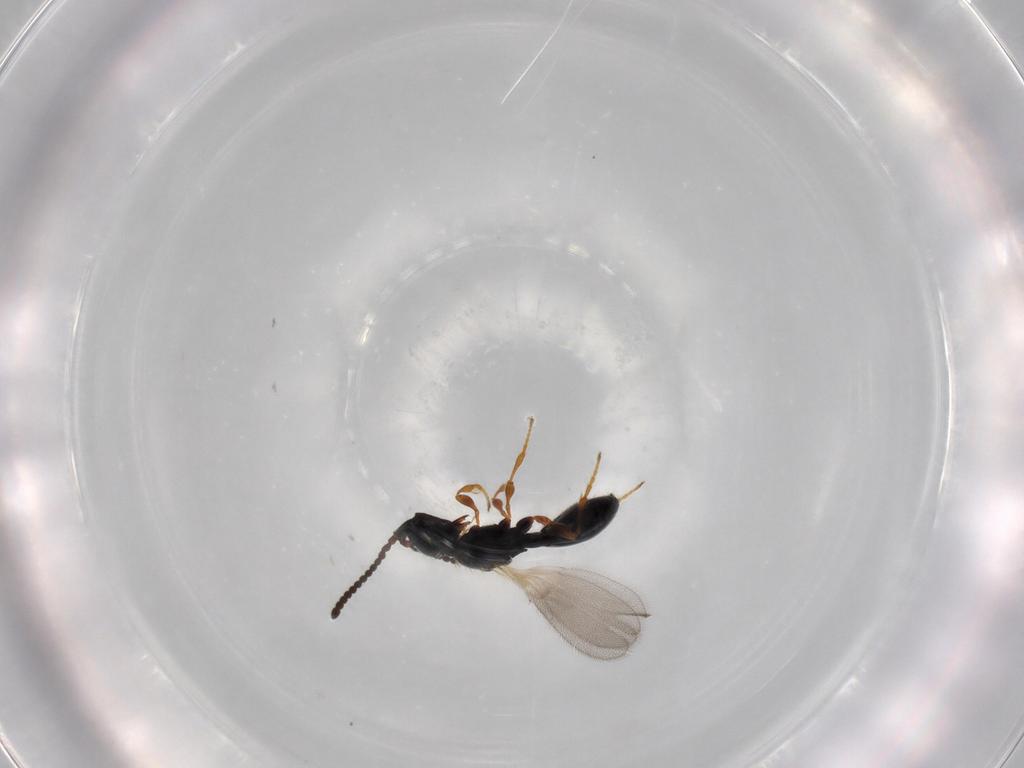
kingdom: Animalia
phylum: Arthropoda
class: Insecta
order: Hymenoptera
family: Diapriidae
